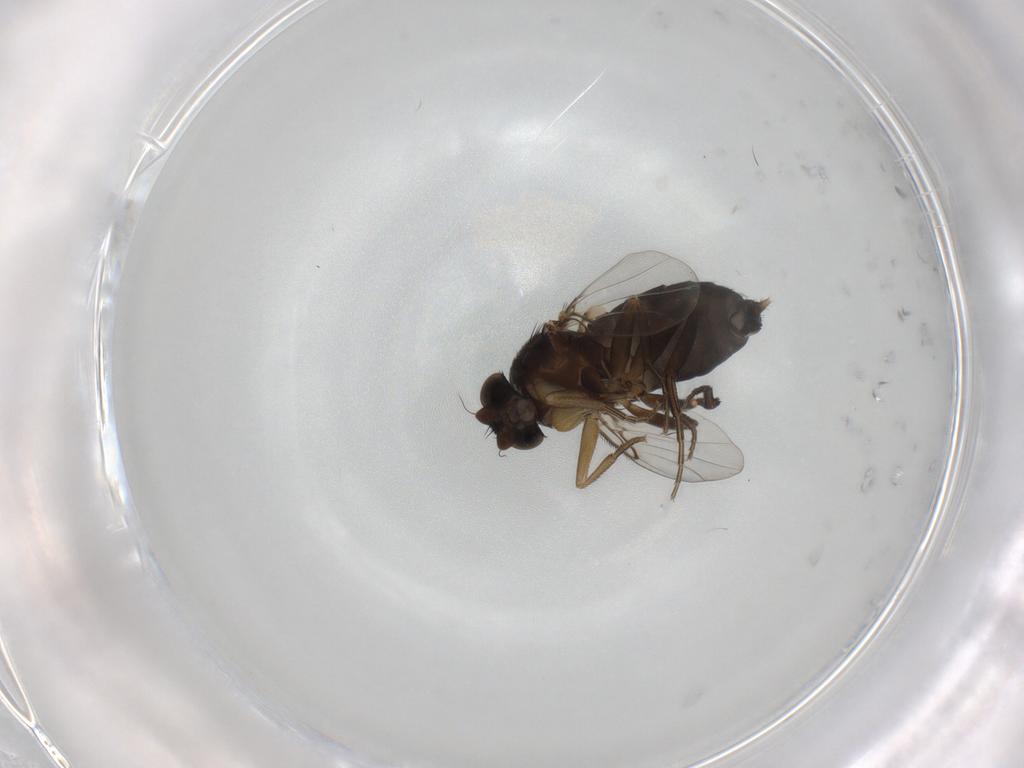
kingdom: Animalia
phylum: Arthropoda
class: Insecta
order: Diptera
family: Phoridae
